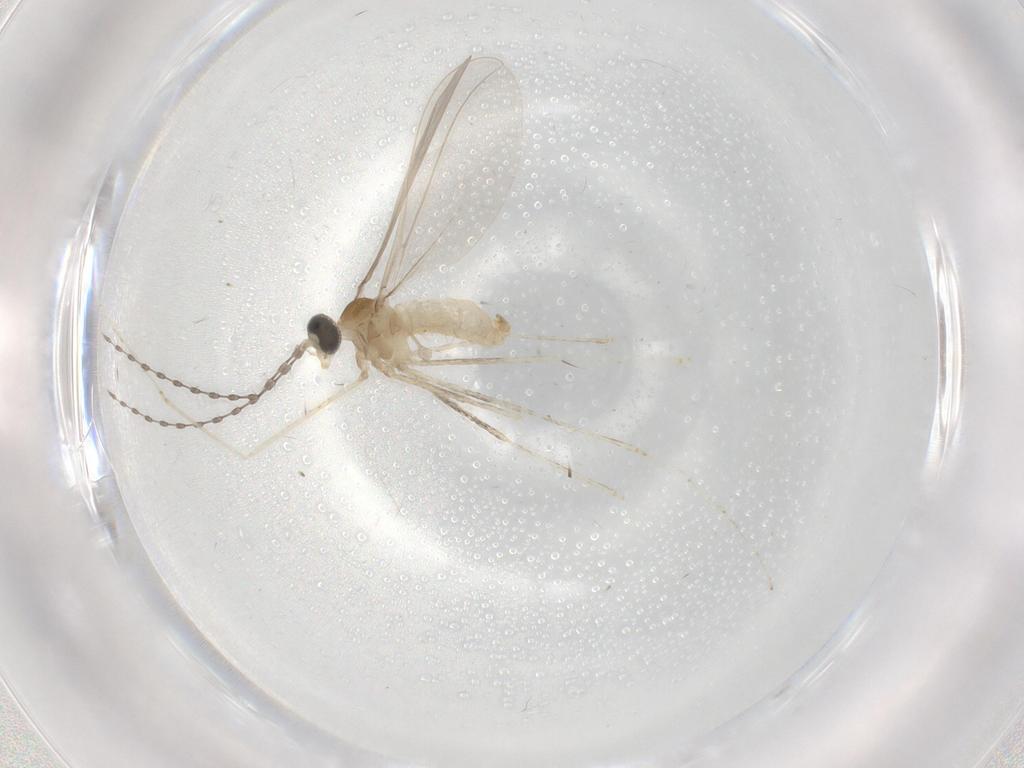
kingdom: Animalia
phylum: Arthropoda
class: Insecta
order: Diptera
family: Cecidomyiidae
